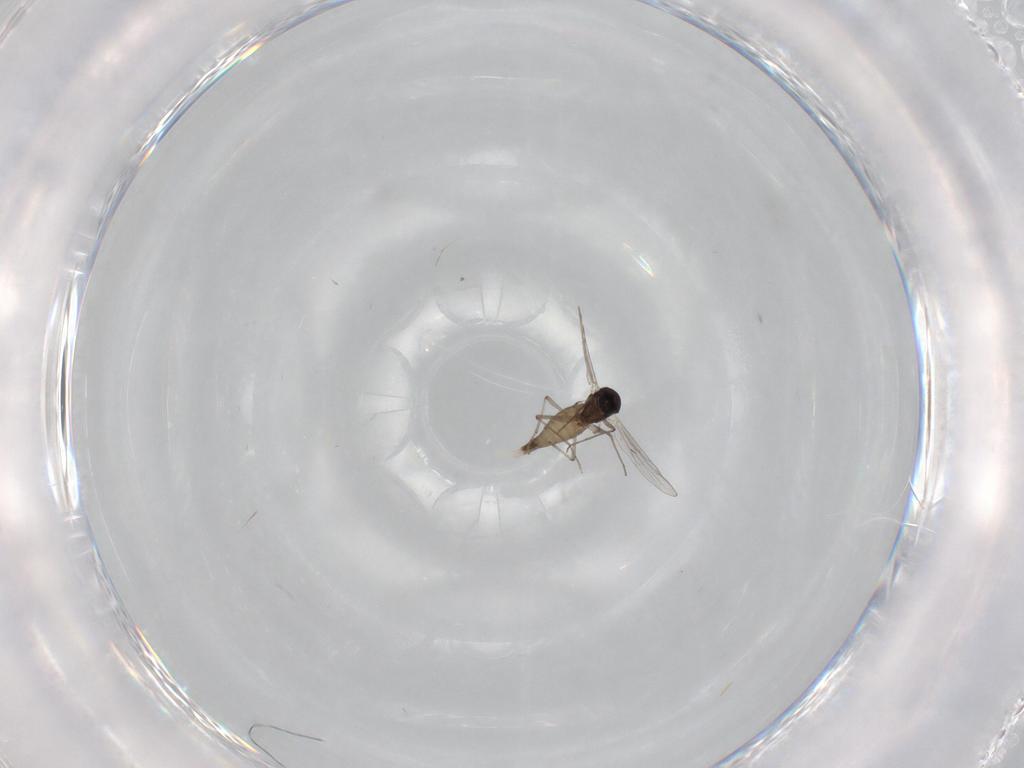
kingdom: Animalia
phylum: Arthropoda
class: Insecta
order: Diptera
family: Chironomidae
